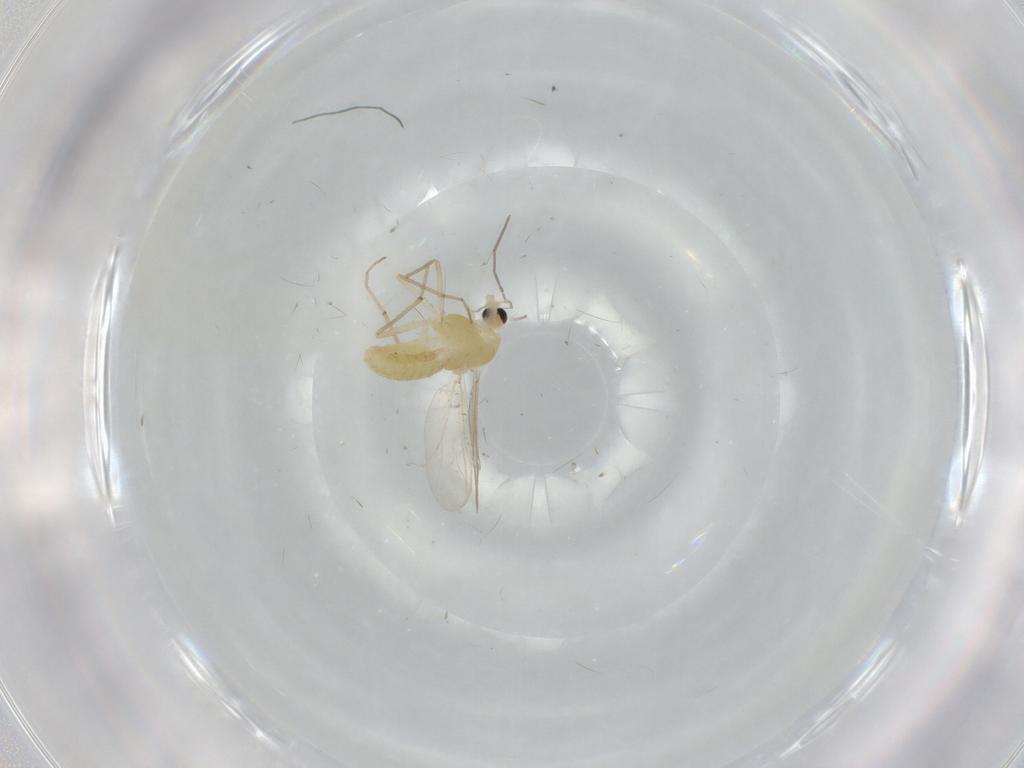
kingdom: Animalia
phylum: Arthropoda
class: Insecta
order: Diptera
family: Chironomidae
